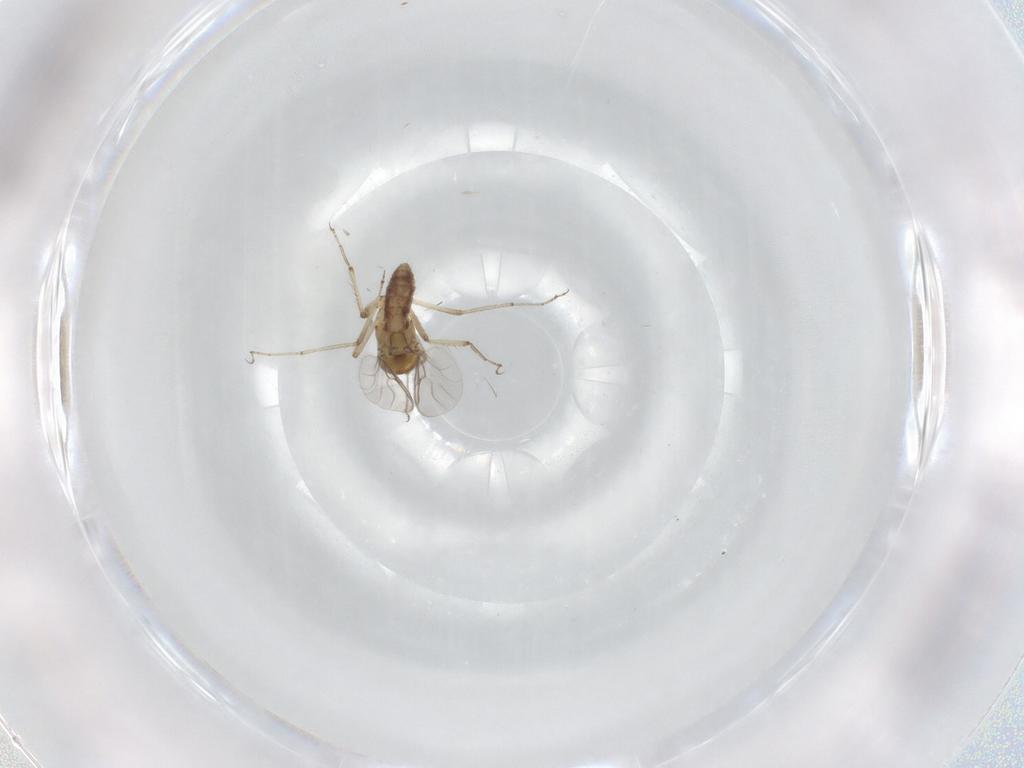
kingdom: Animalia
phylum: Arthropoda
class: Insecta
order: Diptera
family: Ceratopogonidae
